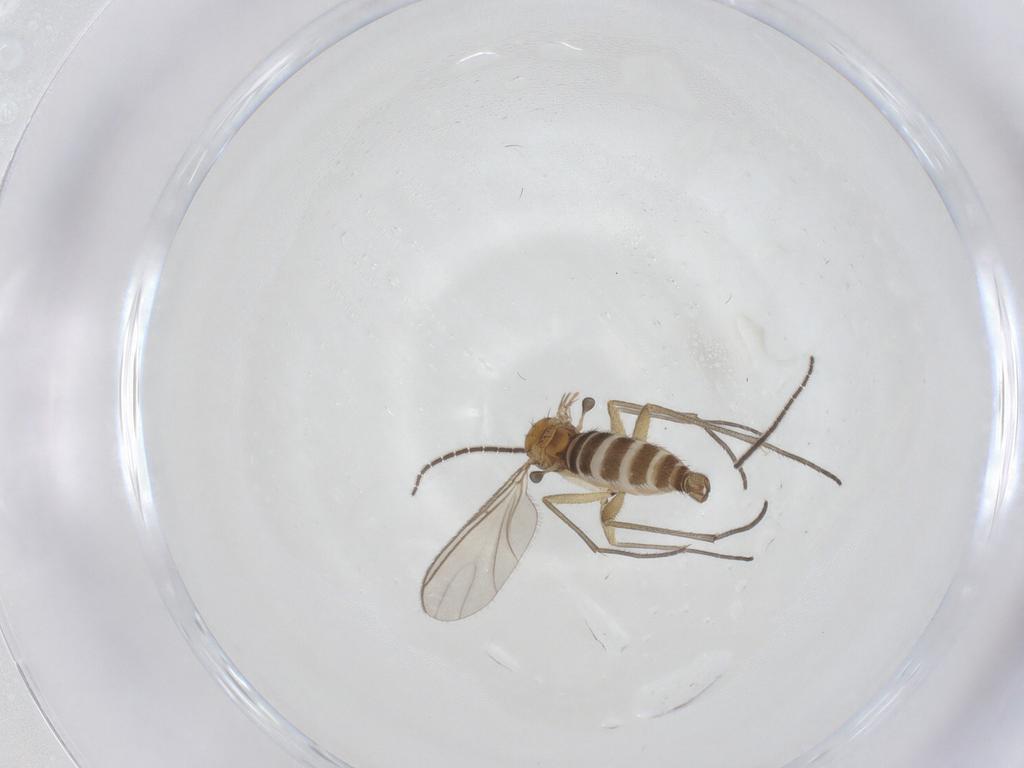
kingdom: Animalia
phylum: Arthropoda
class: Insecta
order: Diptera
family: Sciaridae
